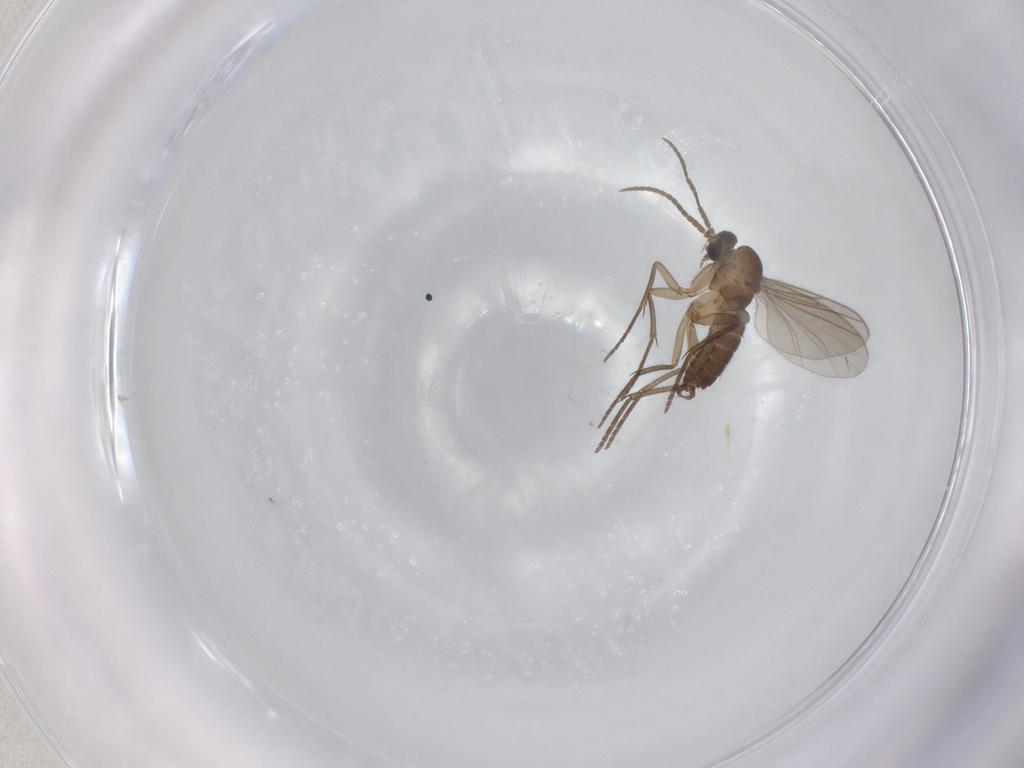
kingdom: Animalia
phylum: Arthropoda
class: Insecta
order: Diptera
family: Sciaridae
